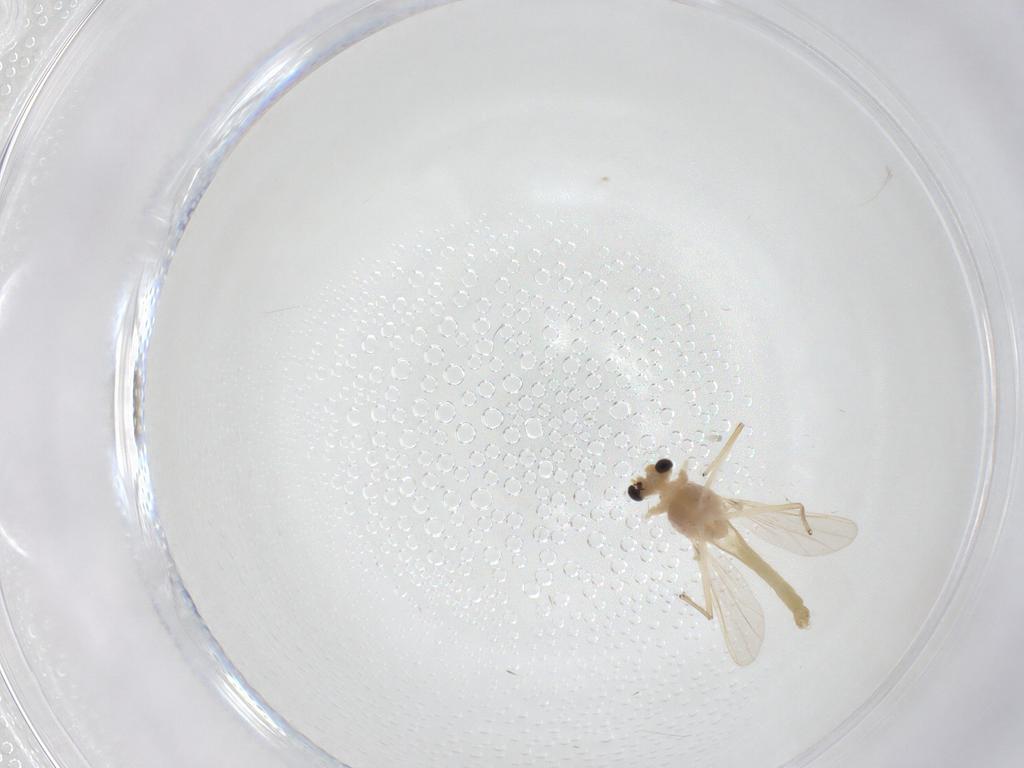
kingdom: Animalia
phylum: Arthropoda
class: Insecta
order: Diptera
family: Chironomidae
